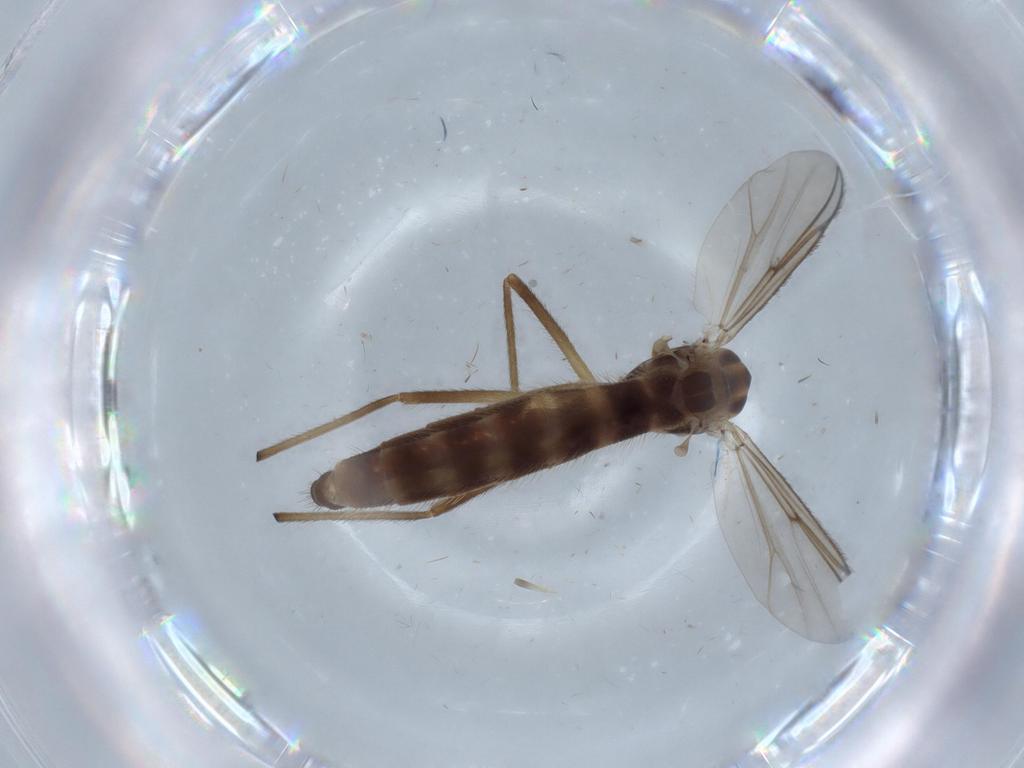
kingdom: Animalia
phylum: Arthropoda
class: Insecta
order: Diptera
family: Chironomidae
